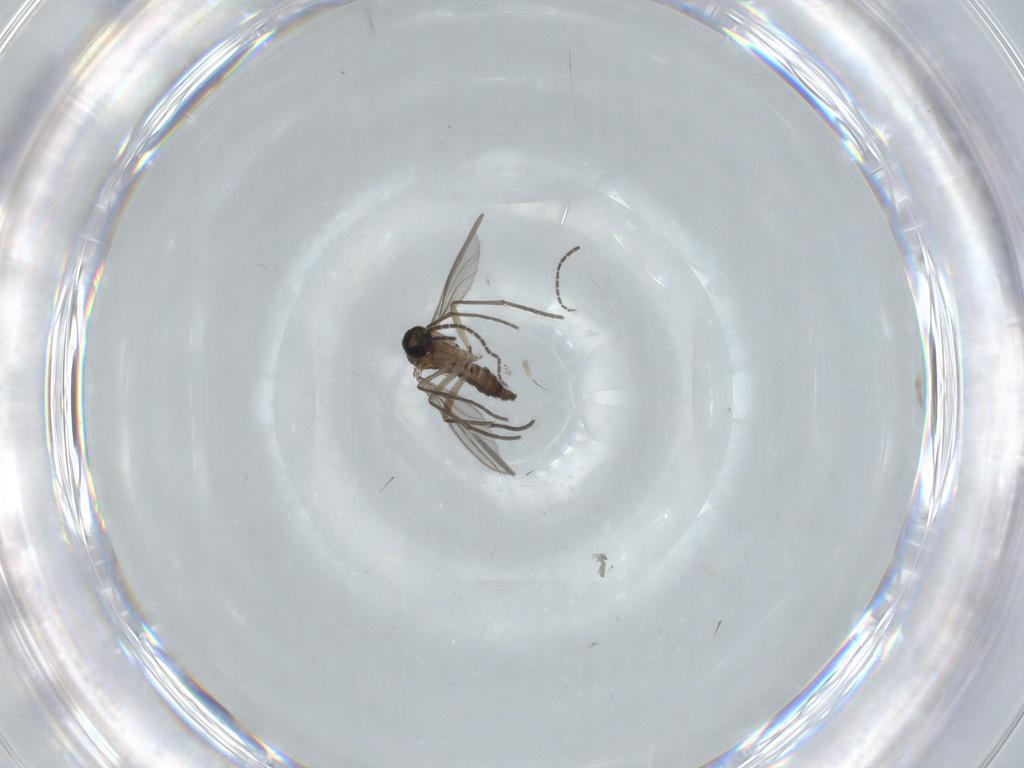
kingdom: Animalia
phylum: Arthropoda
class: Insecta
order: Diptera
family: Sciaridae
